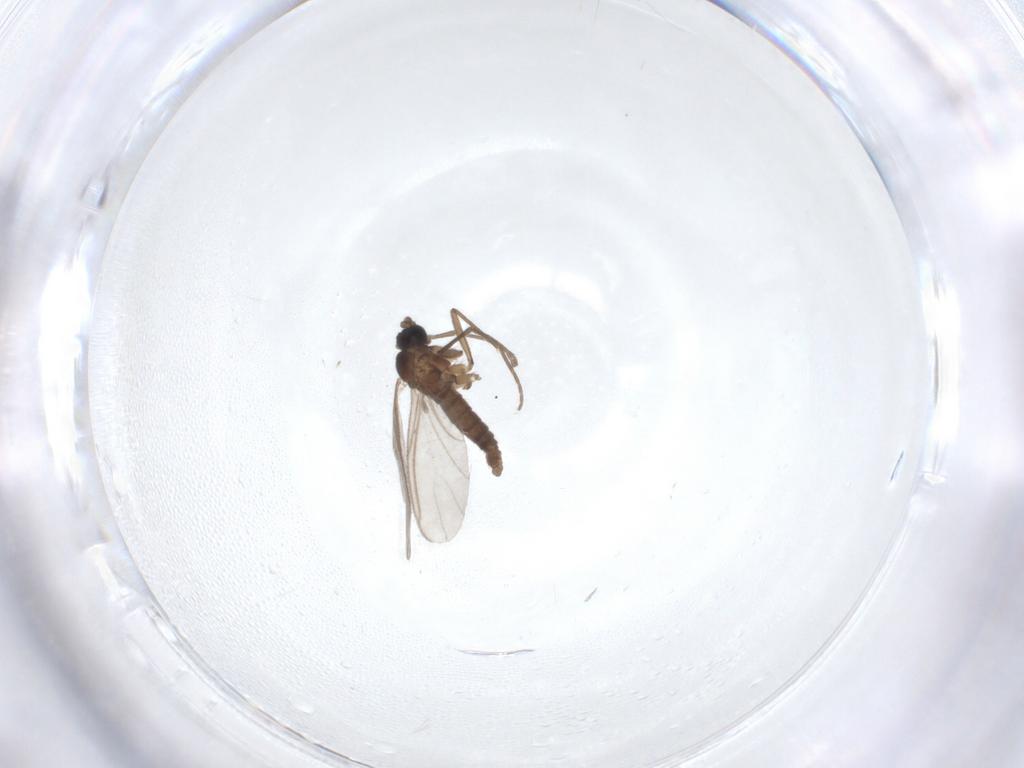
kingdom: Animalia
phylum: Arthropoda
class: Insecta
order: Diptera
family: Sciaridae
